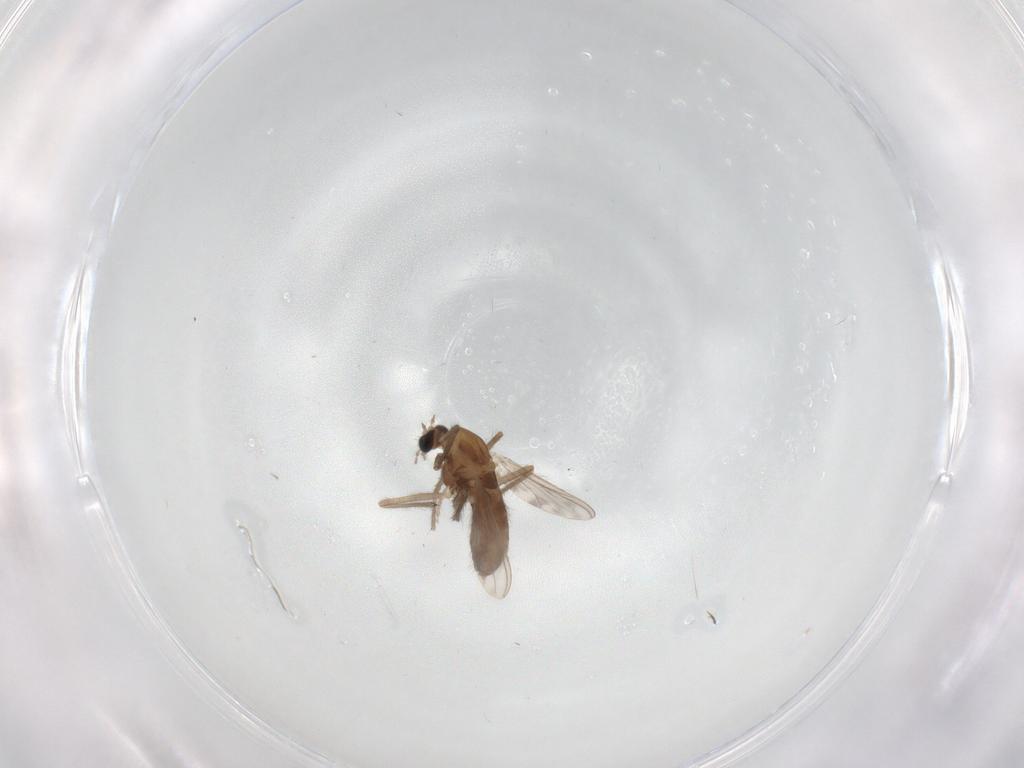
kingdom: Animalia
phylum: Arthropoda
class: Insecta
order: Diptera
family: Chironomidae
